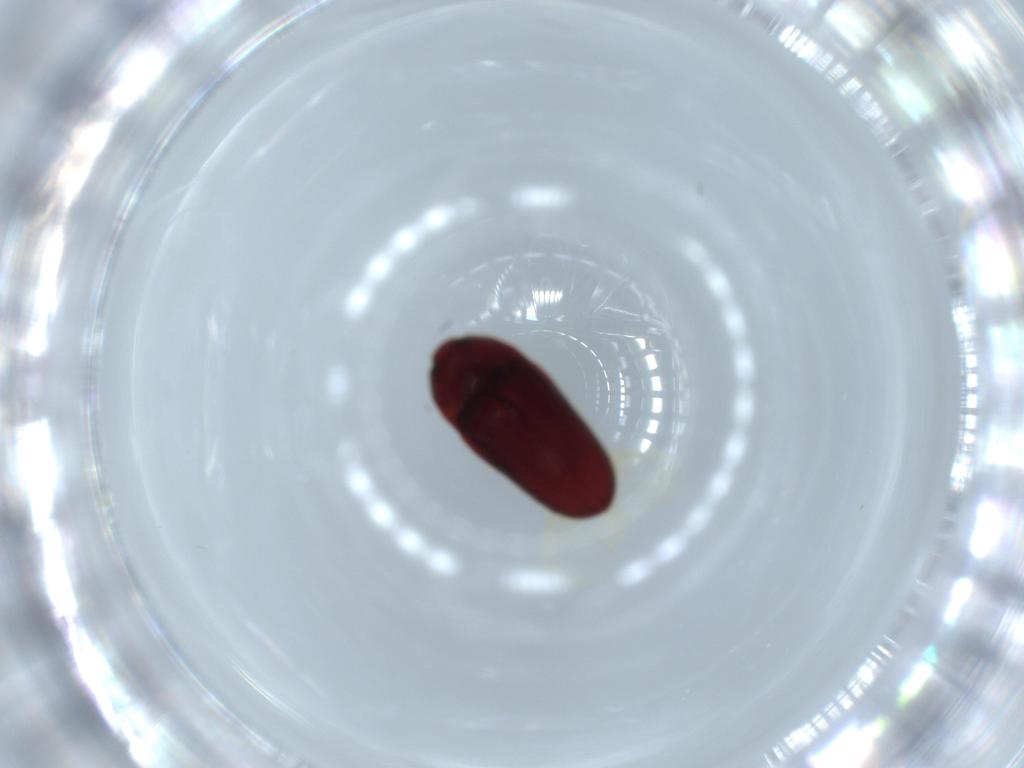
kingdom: Animalia
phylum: Arthropoda
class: Insecta
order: Coleoptera
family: Throscidae
